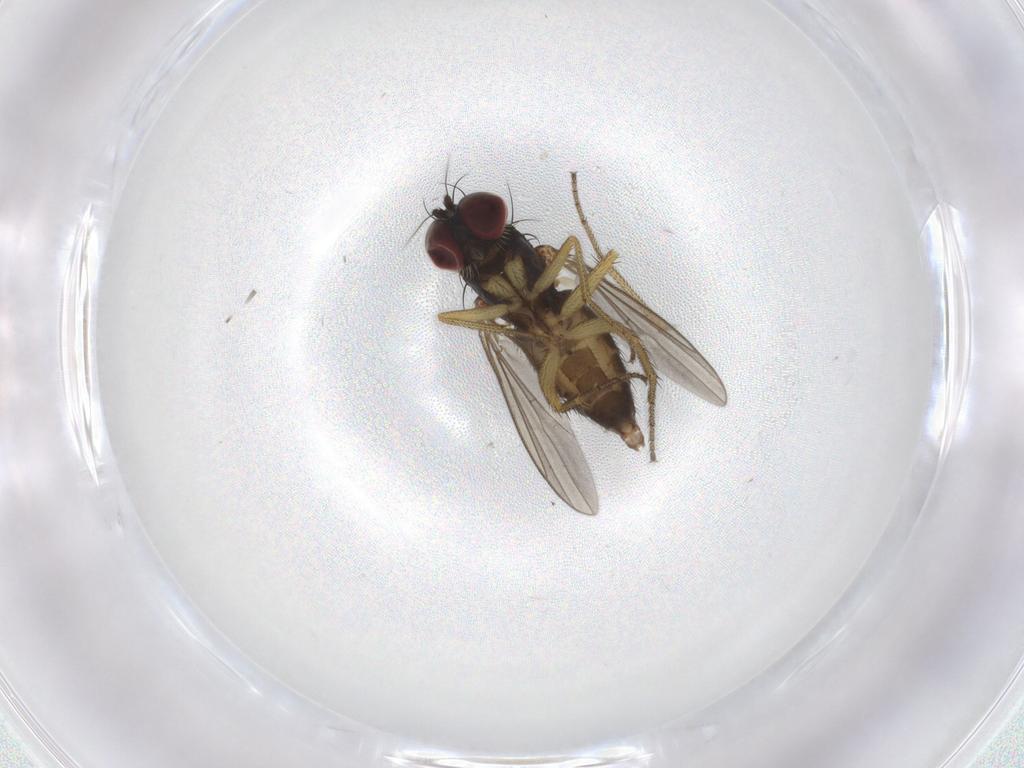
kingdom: Animalia
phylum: Arthropoda
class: Insecta
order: Diptera
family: Dolichopodidae
